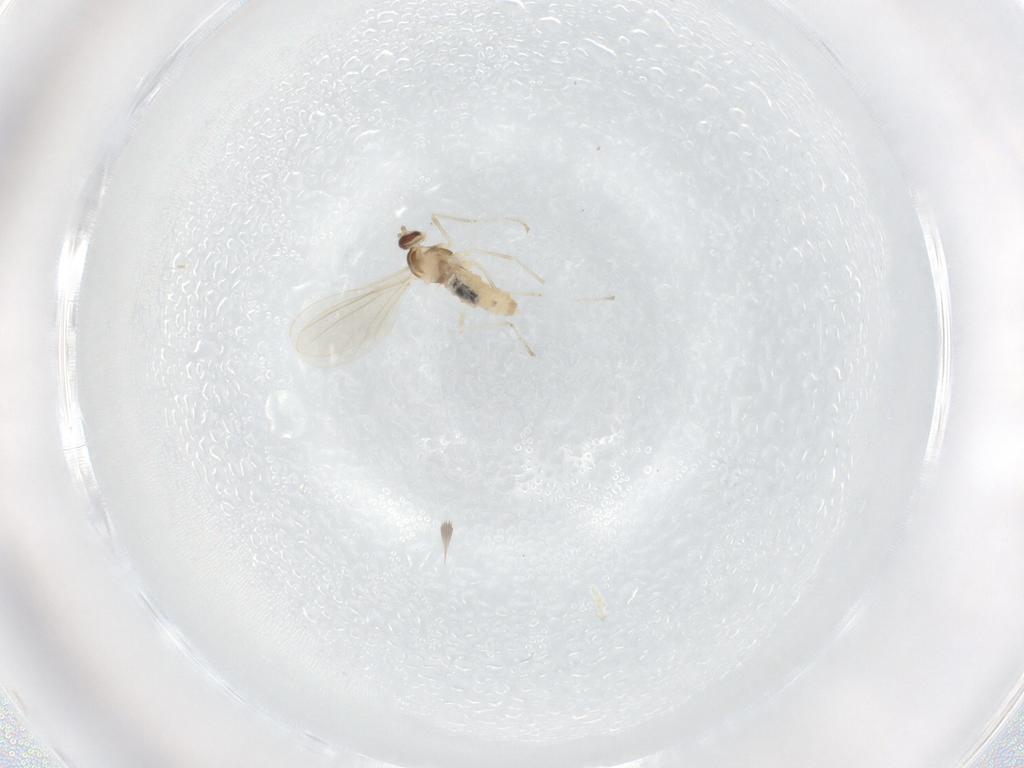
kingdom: Animalia
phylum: Arthropoda
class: Insecta
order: Diptera
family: Cecidomyiidae
